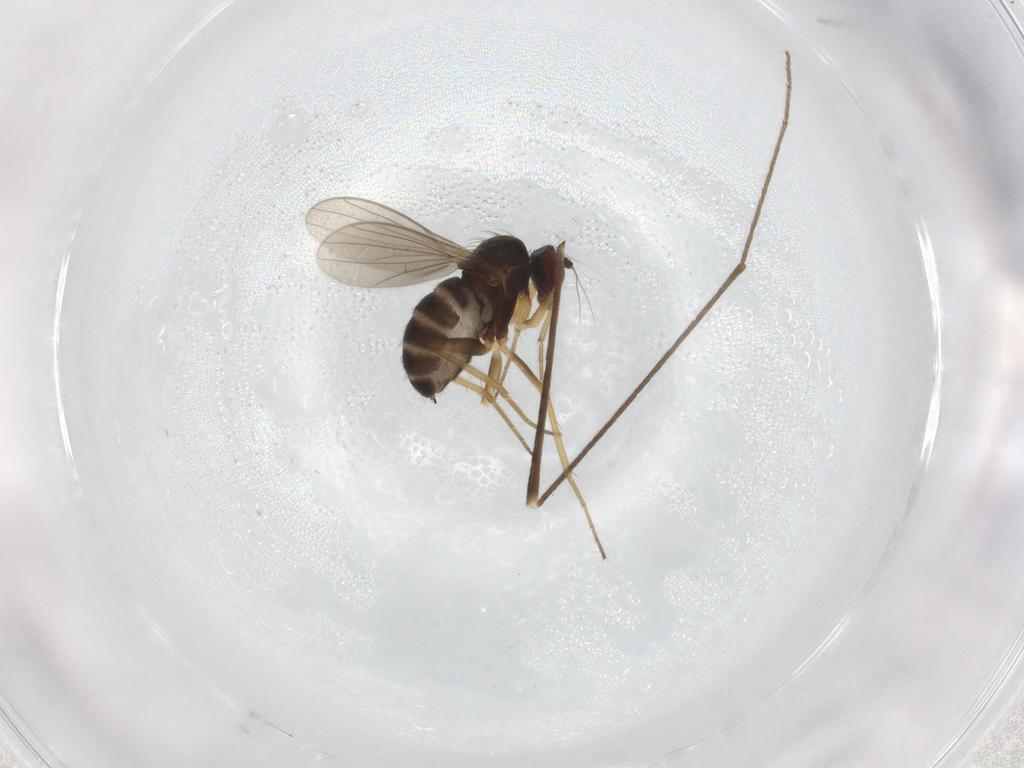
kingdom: Animalia
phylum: Arthropoda
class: Insecta
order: Diptera
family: Dolichopodidae
